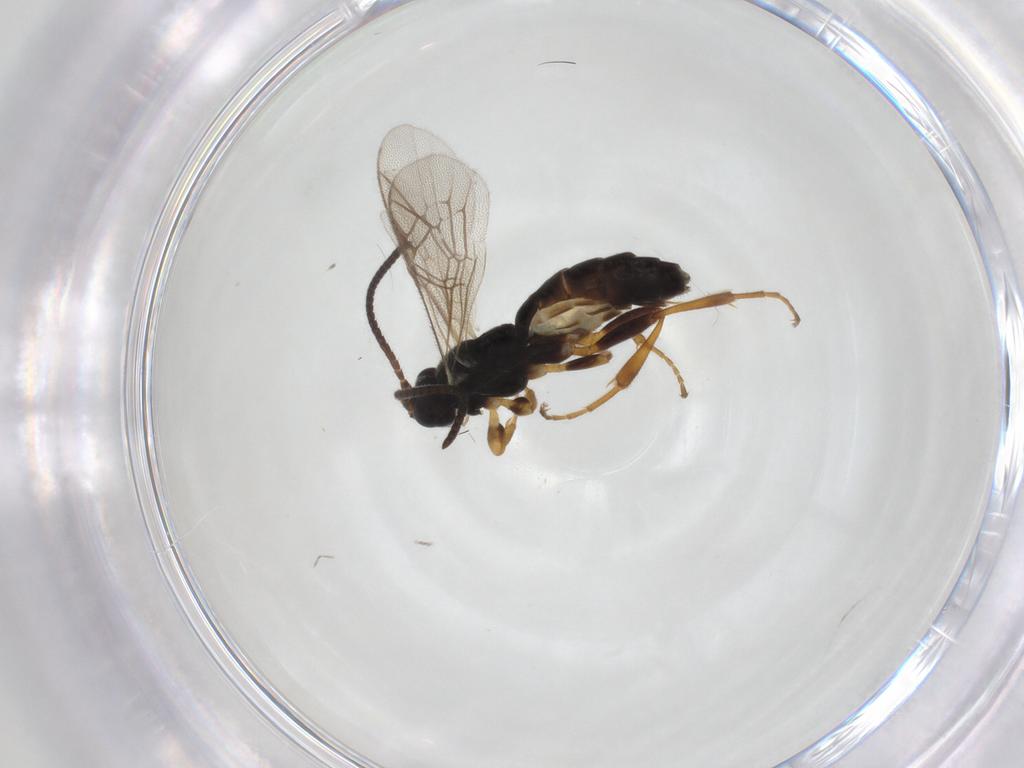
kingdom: Animalia
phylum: Arthropoda
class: Insecta
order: Hymenoptera
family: Ichneumonidae
